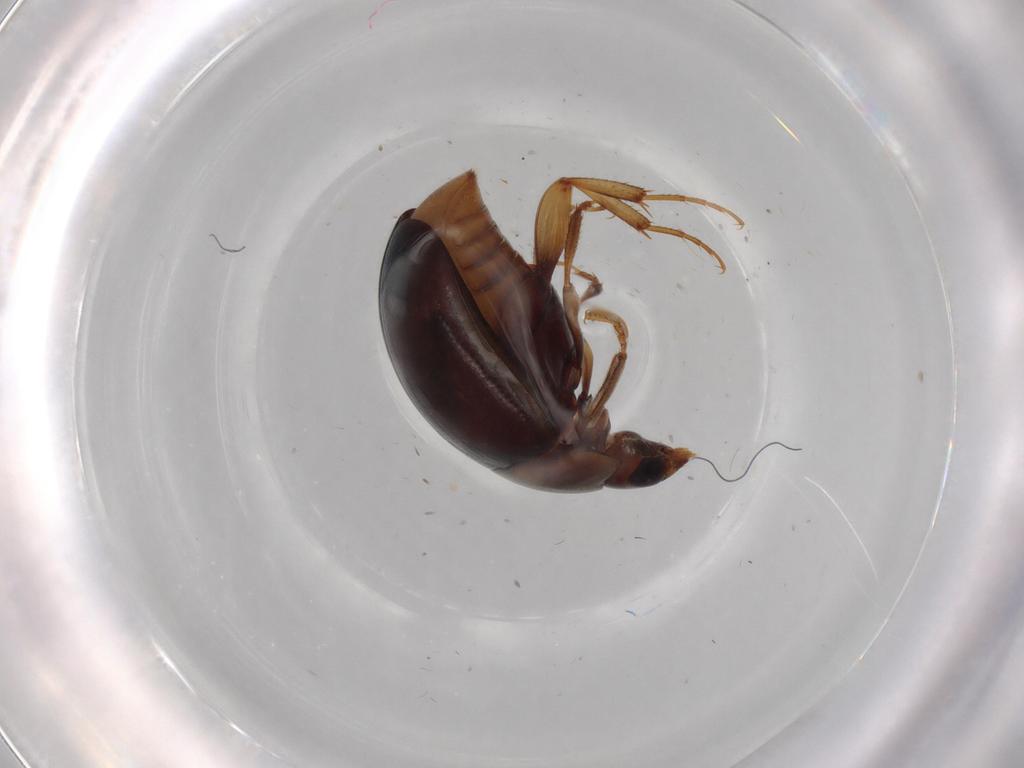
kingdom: Animalia
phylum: Arthropoda
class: Insecta
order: Coleoptera
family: Nitidulidae
